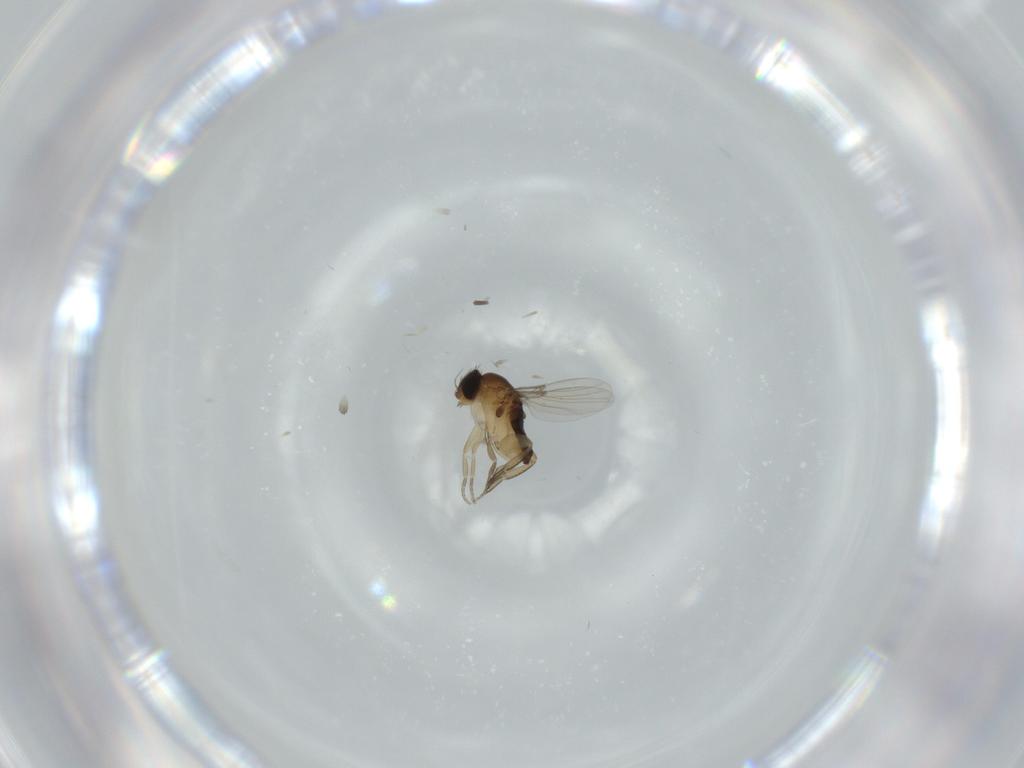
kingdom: Animalia
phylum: Arthropoda
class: Insecta
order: Diptera
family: Phoridae
